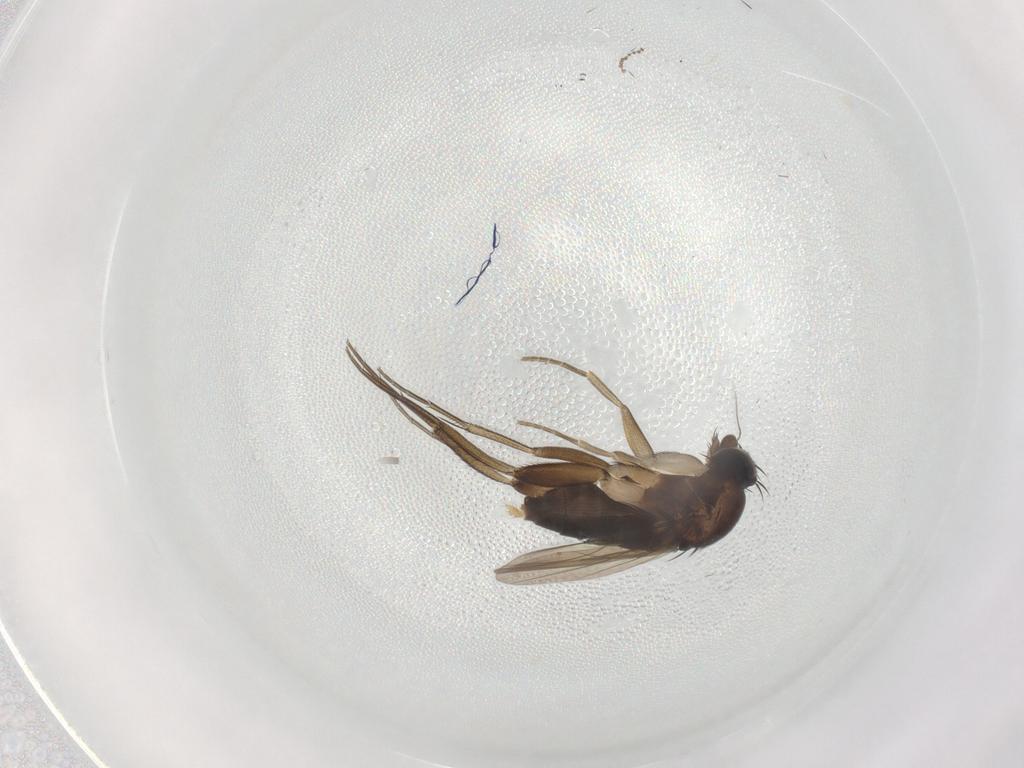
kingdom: Animalia
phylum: Arthropoda
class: Insecta
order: Diptera
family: Phoridae
